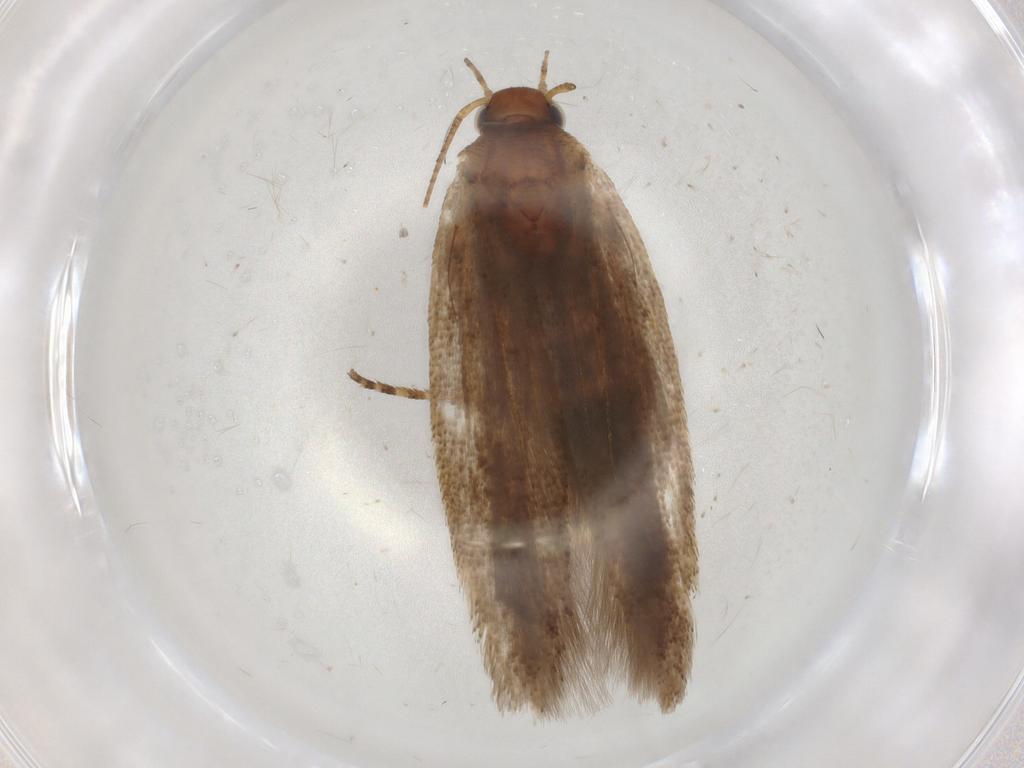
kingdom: Animalia
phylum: Arthropoda
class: Insecta
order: Lepidoptera
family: Gelechiidae
